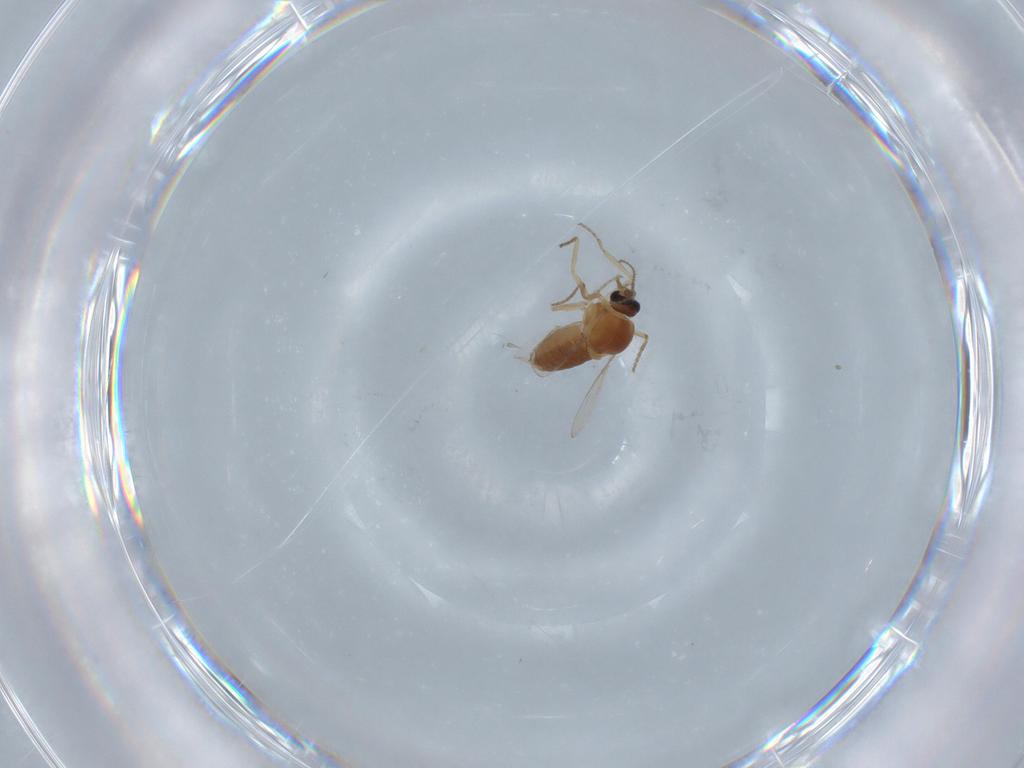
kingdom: Animalia
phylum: Arthropoda
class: Insecta
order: Diptera
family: Ceratopogonidae
